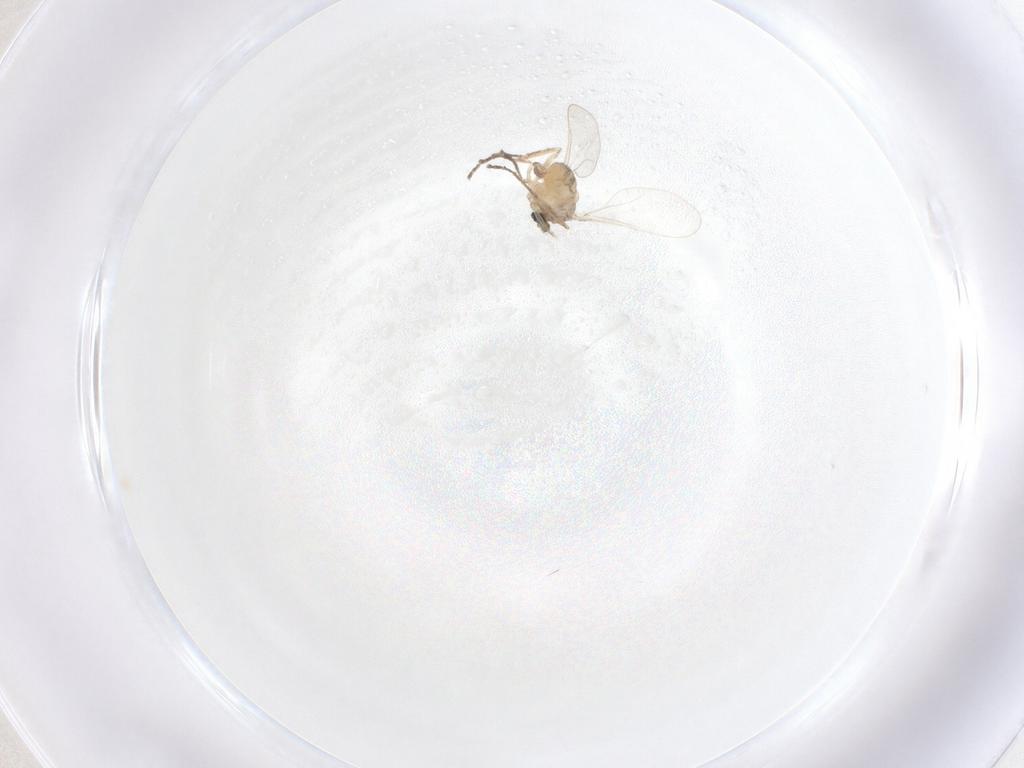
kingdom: Animalia
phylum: Arthropoda
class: Insecta
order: Diptera
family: Cecidomyiidae
